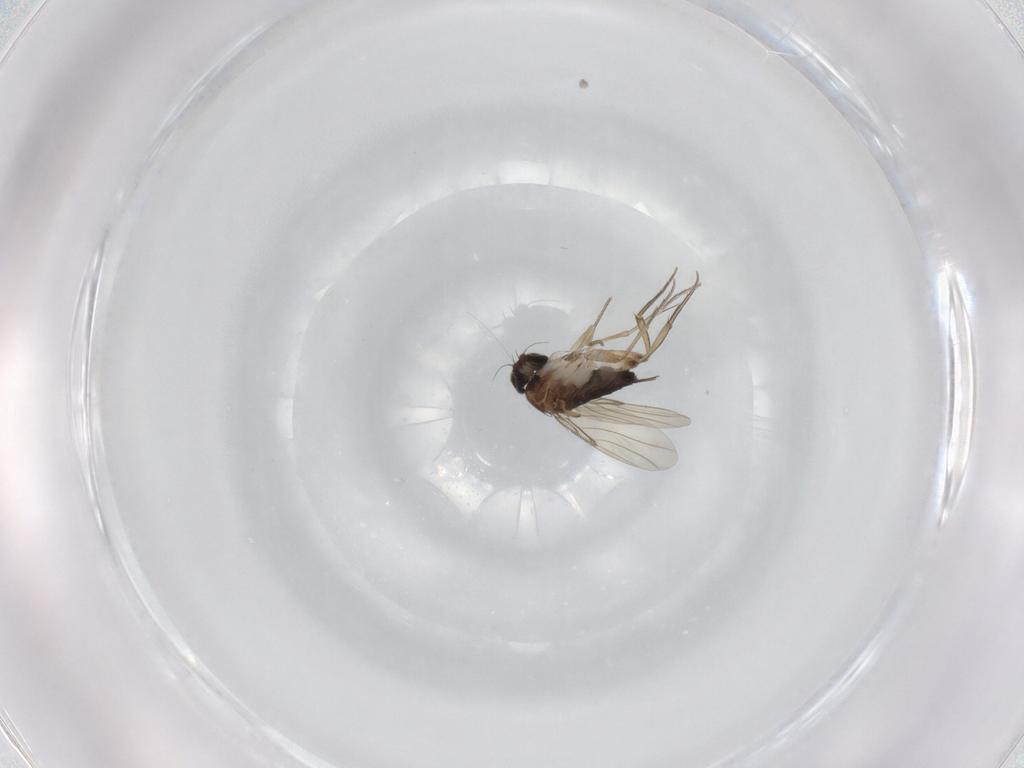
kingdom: Animalia
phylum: Arthropoda
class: Insecta
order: Diptera
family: Phoridae
